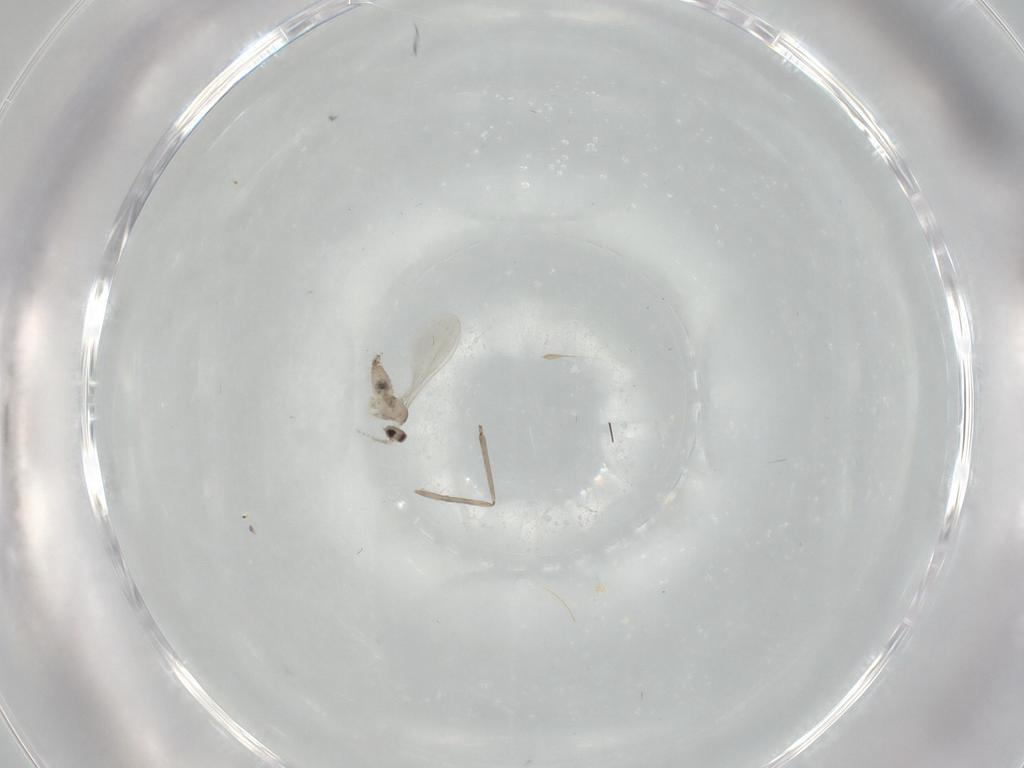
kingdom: Animalia
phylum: Arthropoda
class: Insecta
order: Diptera
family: Cecidomyiidae
